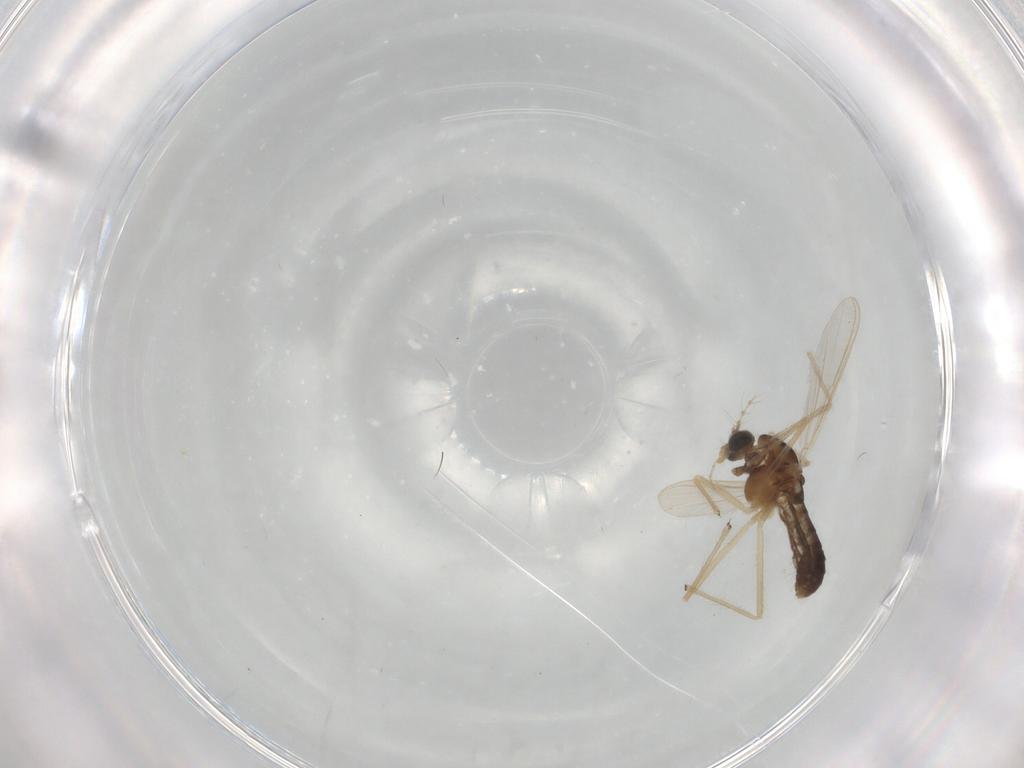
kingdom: Animalia
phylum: Arthropoda
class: Insecta
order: Diptera
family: Chironomidae
